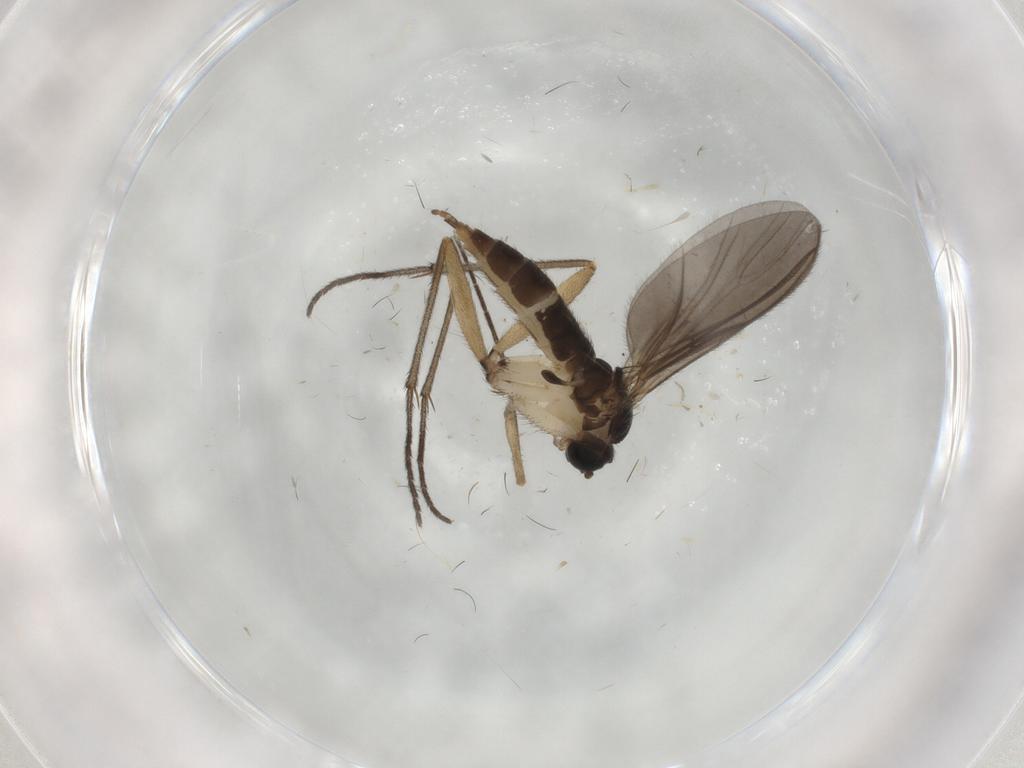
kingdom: Animalia
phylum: Arthropoda
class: Insecta
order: Diptera
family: Sciaridae
